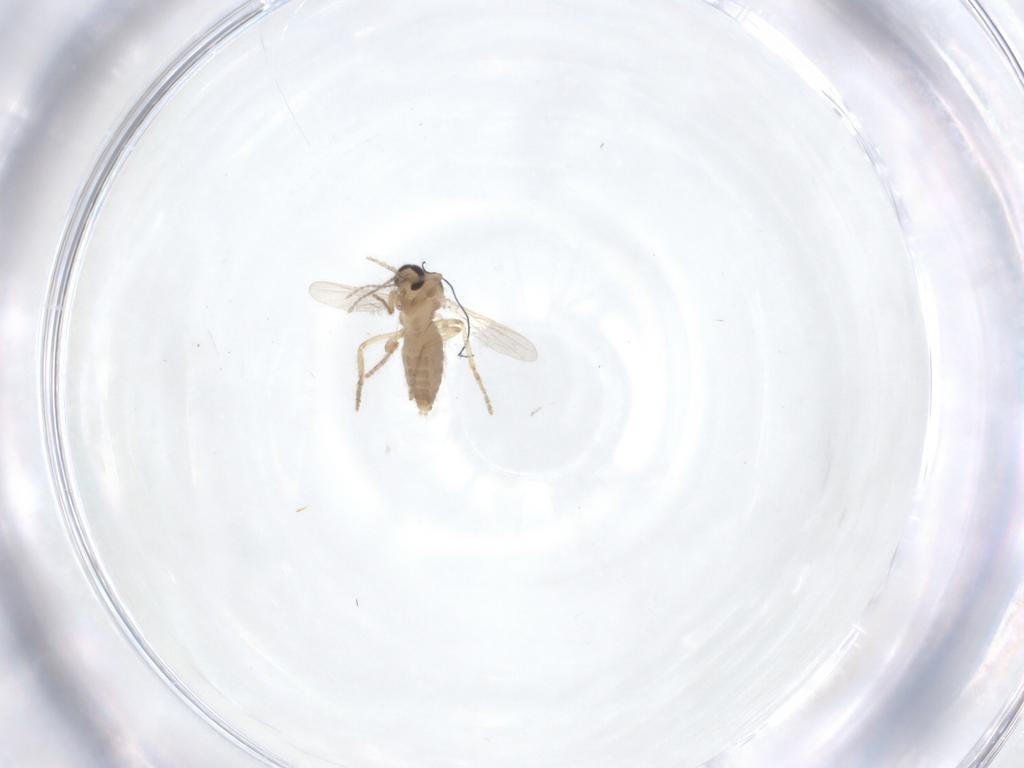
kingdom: Animalia
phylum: Arthropoda
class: Insecta
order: Diptera
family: Ceratopogonidae
